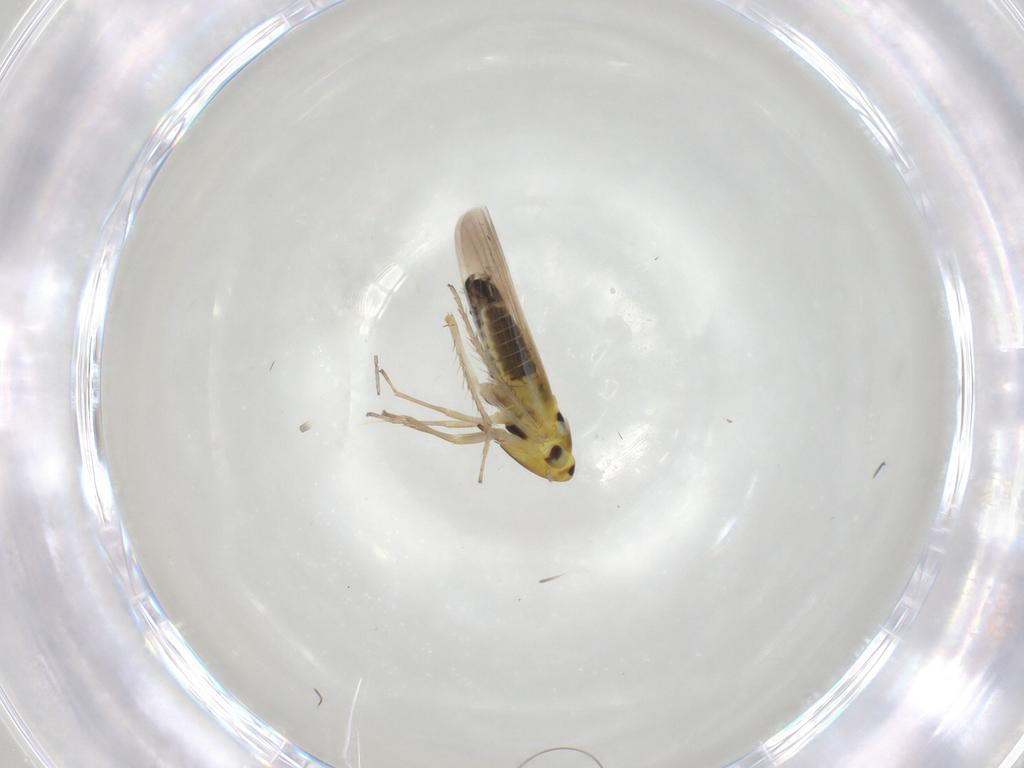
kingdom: Animalia
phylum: Arthropoda
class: Insecta
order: Hemiptera
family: Cicadellidae
